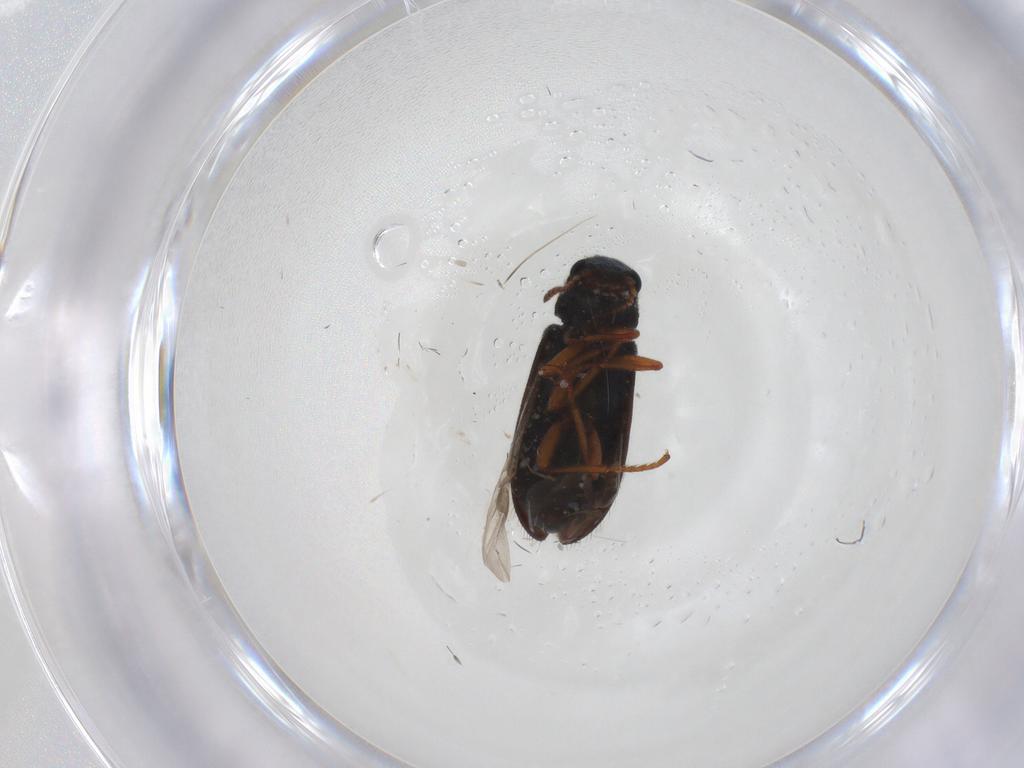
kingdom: Animalia
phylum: Arthropoda
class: Insecta
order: Coleoptera
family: Melyridae
